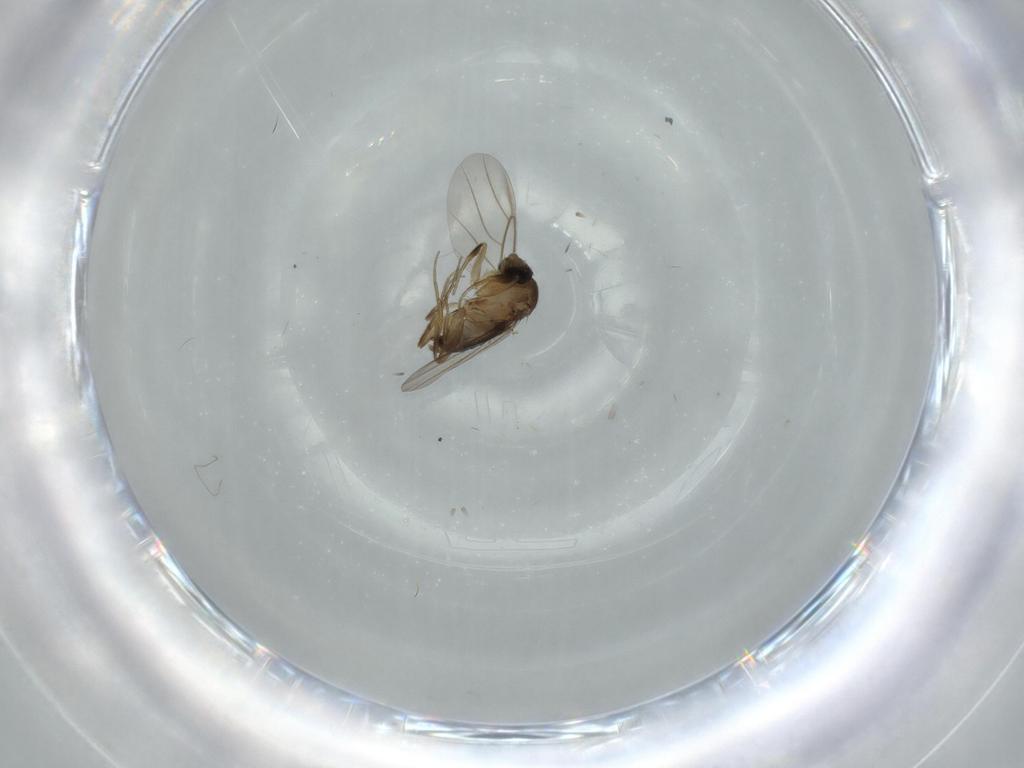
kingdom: Animalia
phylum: Arthropoda
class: Insecta
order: Diptera
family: Phoridae
